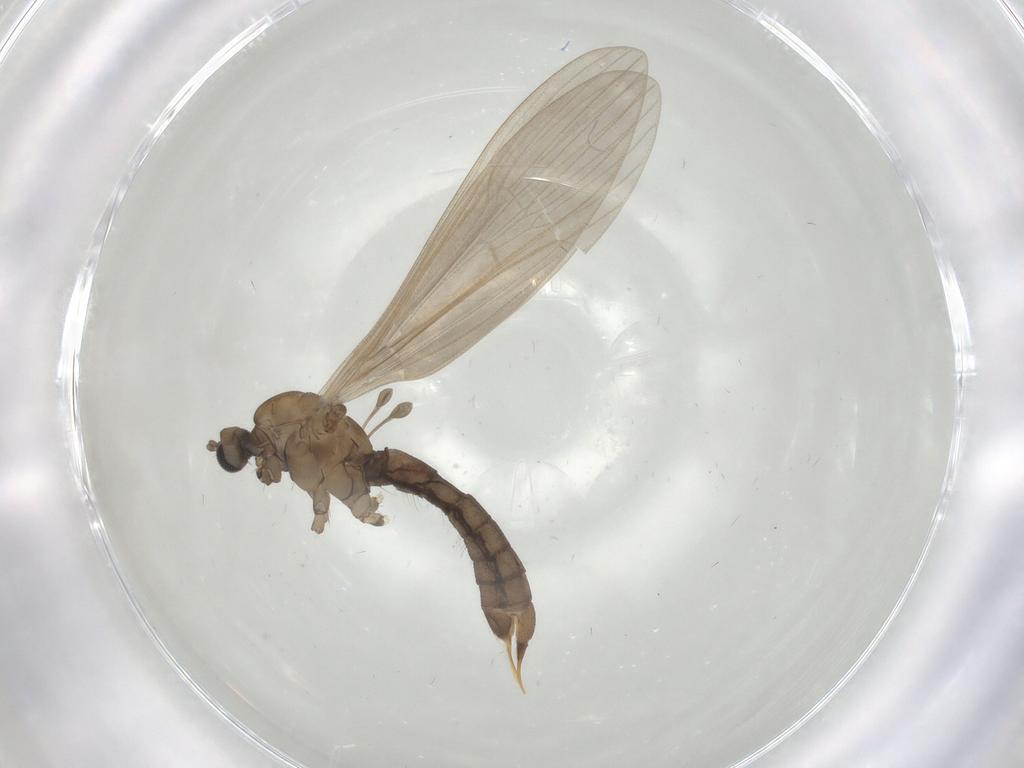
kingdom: Animalia
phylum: Arthropoda
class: Insecta
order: Diptera
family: Limoniidae
